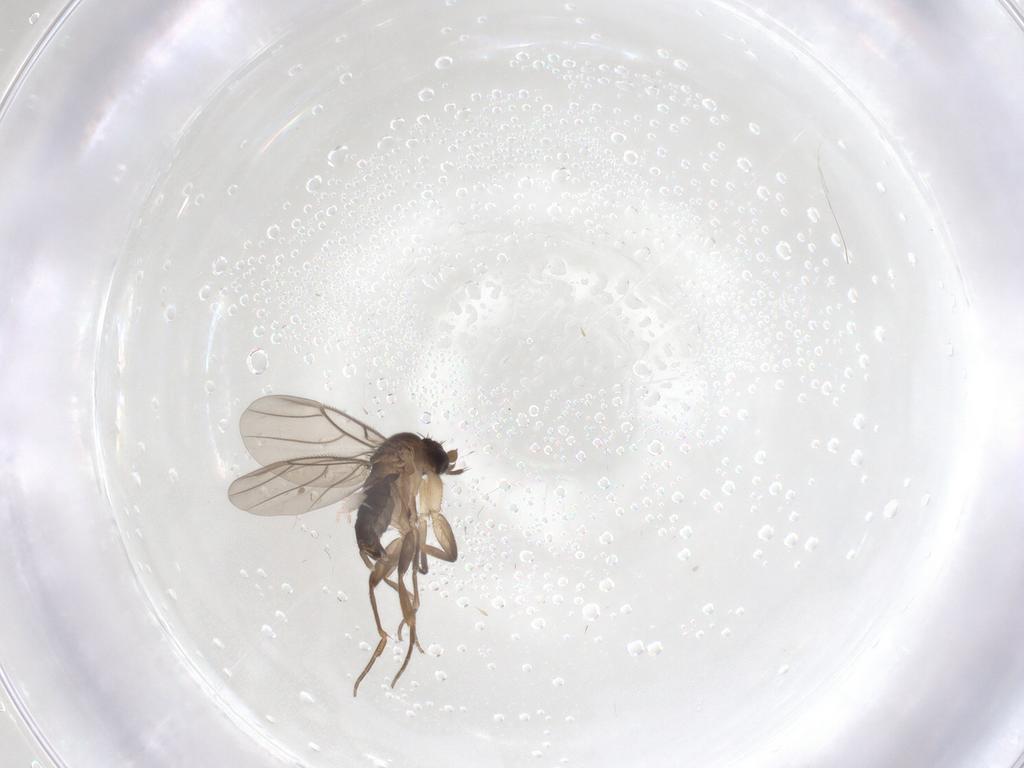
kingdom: Animalia
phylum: Arthropoda
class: Insecta
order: Diptera
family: Phoridae
